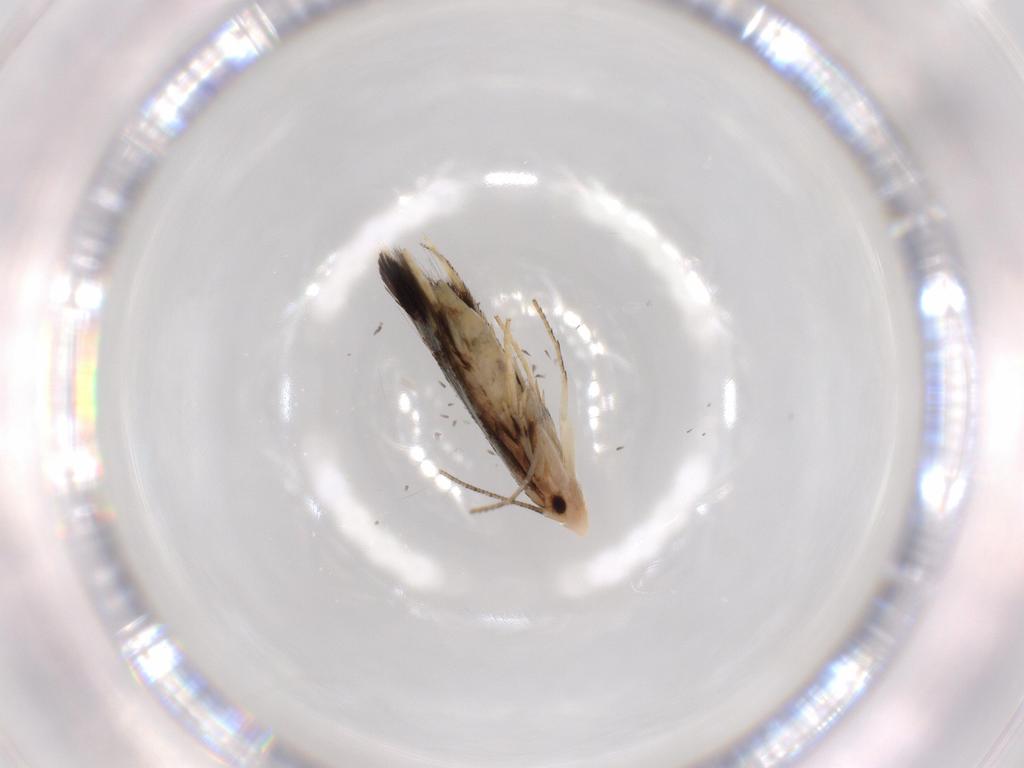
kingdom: Animalia
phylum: Arthropoda
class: Insecta
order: Lepidoptera
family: Nepticulidae
